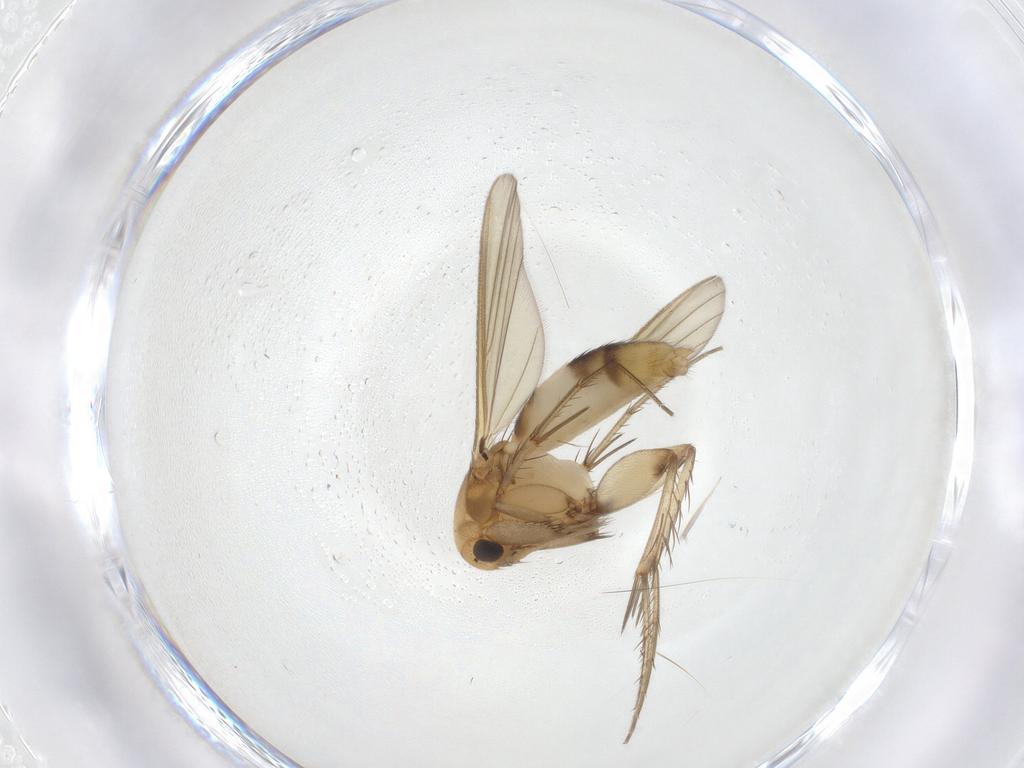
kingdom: Animalia
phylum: Arthropoda
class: Insecta
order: Diptera
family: Mycetophilidae
